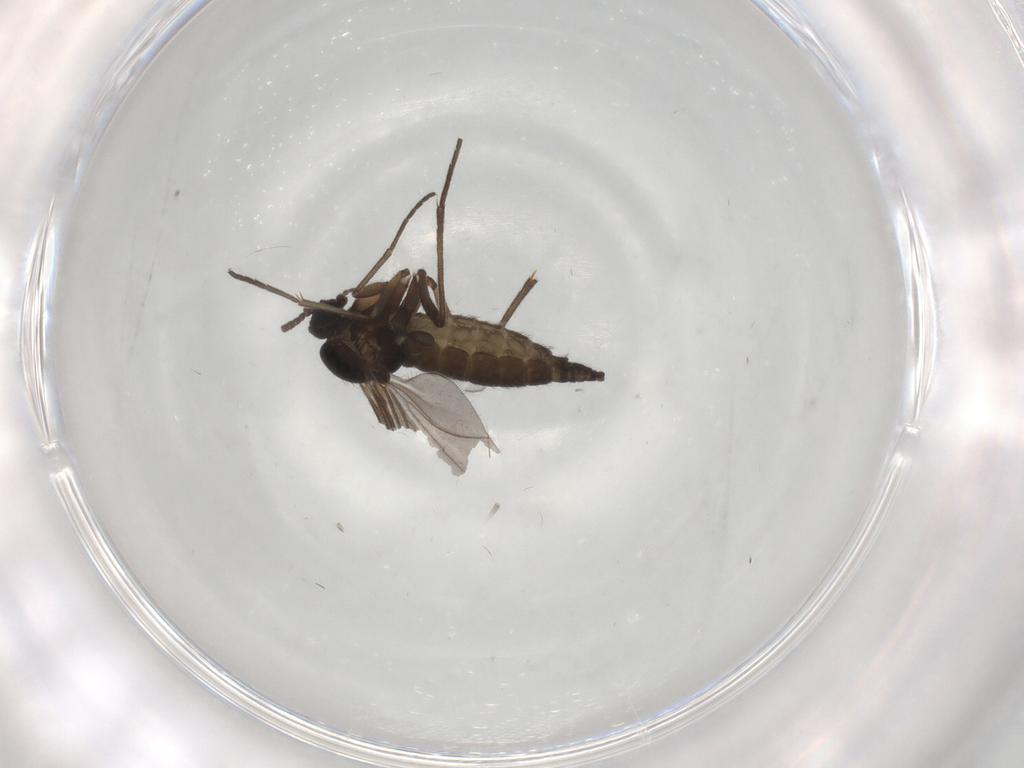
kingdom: Animalia
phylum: Arthropoda
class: Insecta
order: Diptera
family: Sciaridae
